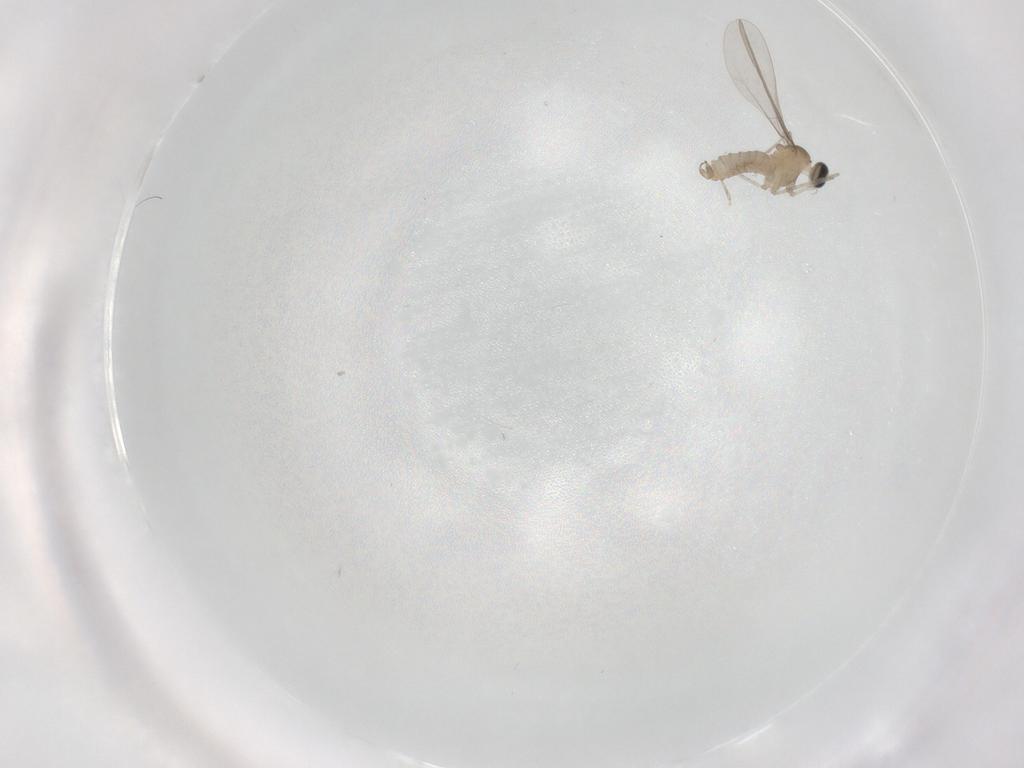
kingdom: Animalia
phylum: Arthropoda
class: Insecta
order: Diptera
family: Cecidomyiidae
